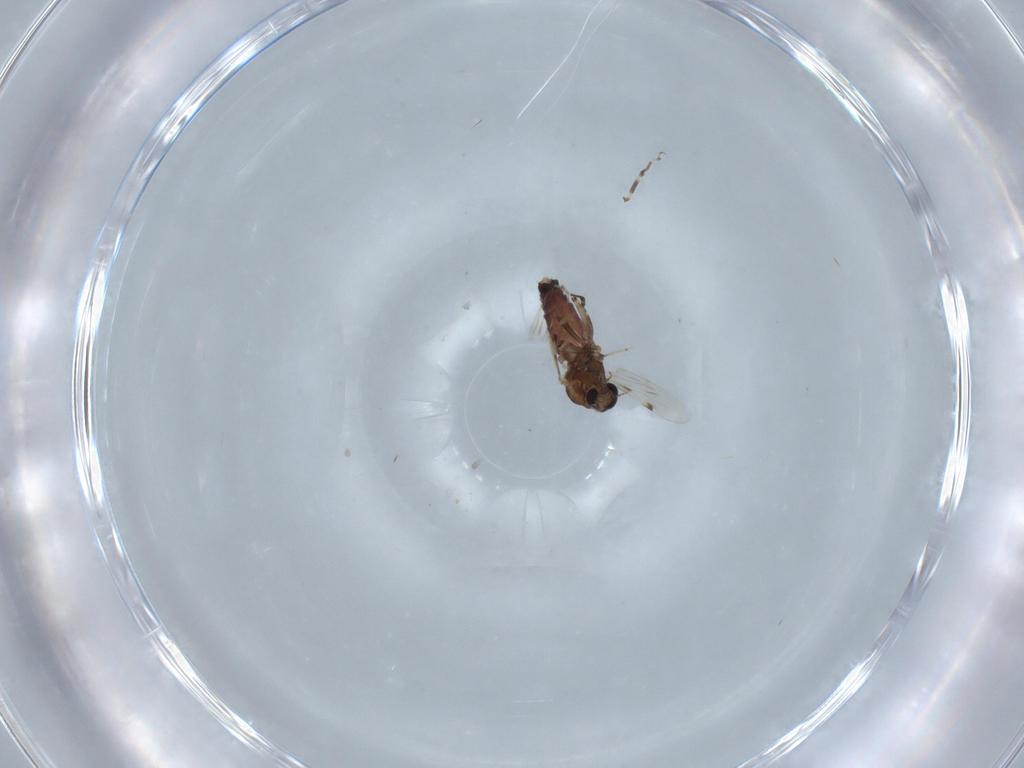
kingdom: Animalia
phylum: Arthropoda
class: Insecta
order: Diptera
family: Ceratopogonidae
